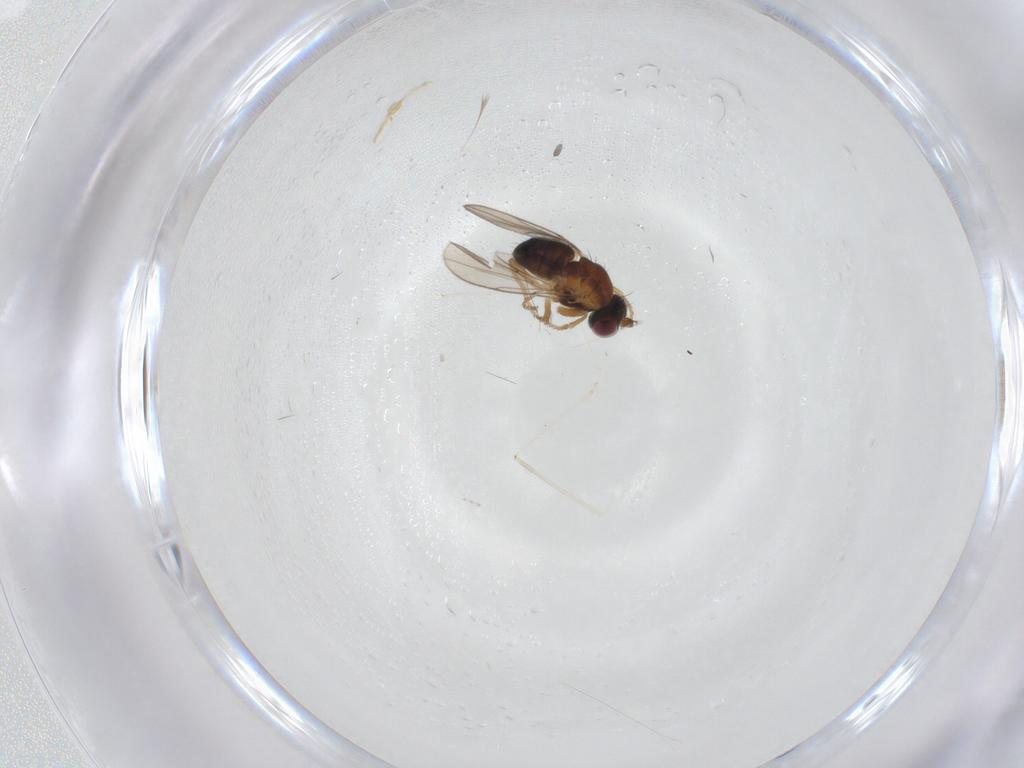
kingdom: Animalia
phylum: Arthropoda
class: Insecta
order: Diptera
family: Ephydridae
